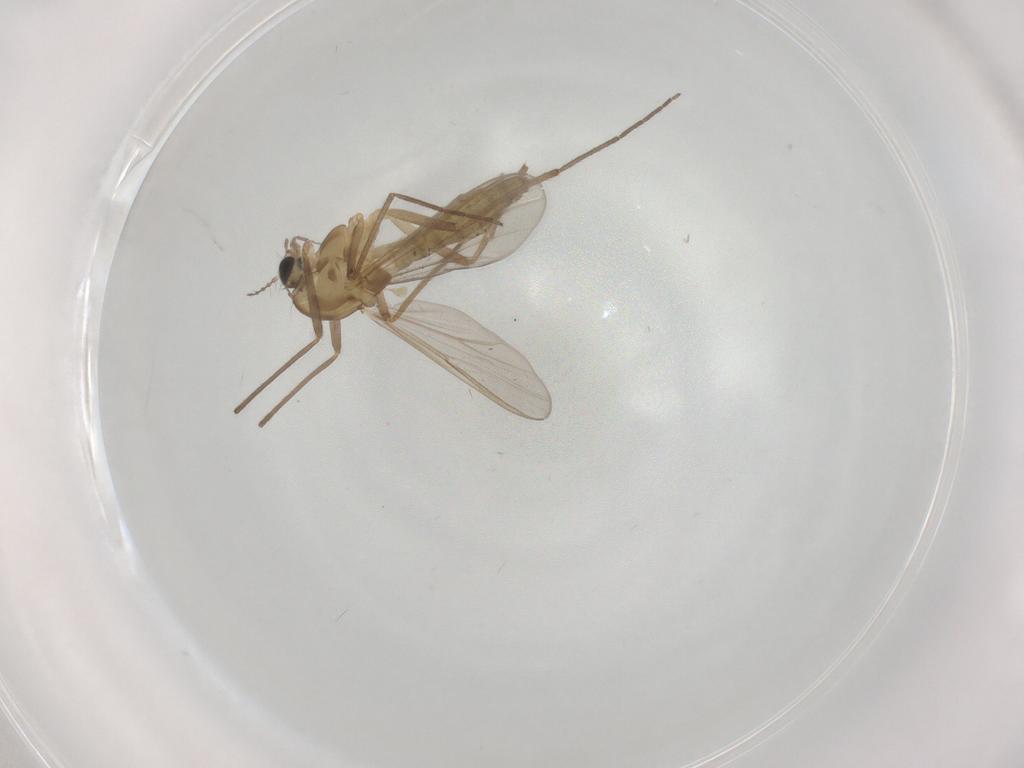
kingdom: Animalia
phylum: Arthropoda
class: Insecta
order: Diptera
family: Chironomidae
